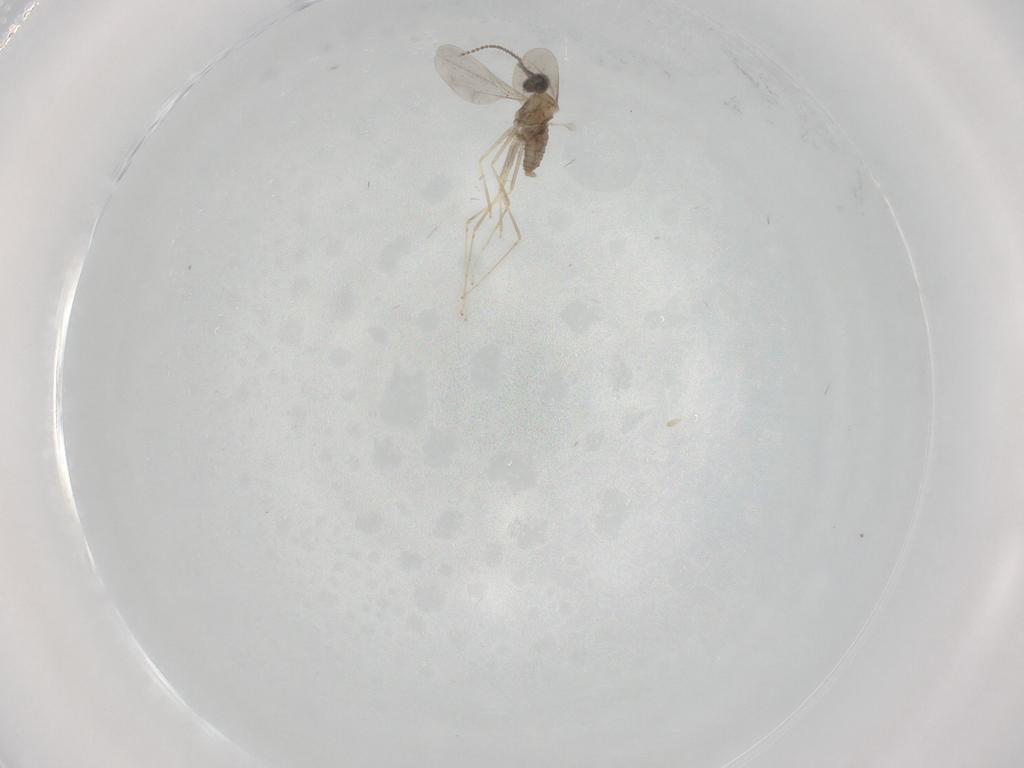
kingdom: Animalia
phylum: Arthropoda
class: Insecta
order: Diptera
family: Cecidomyiidae
